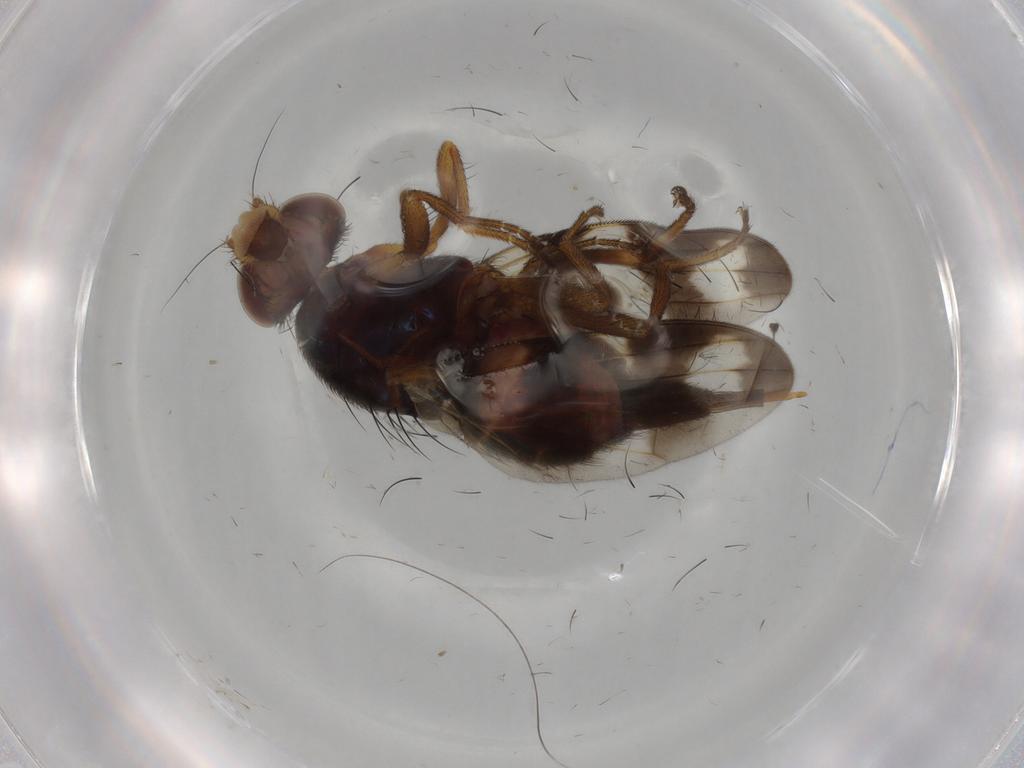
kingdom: Animalia
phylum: Arthropoda
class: Insecta
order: Diptera
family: Ulidiidae
